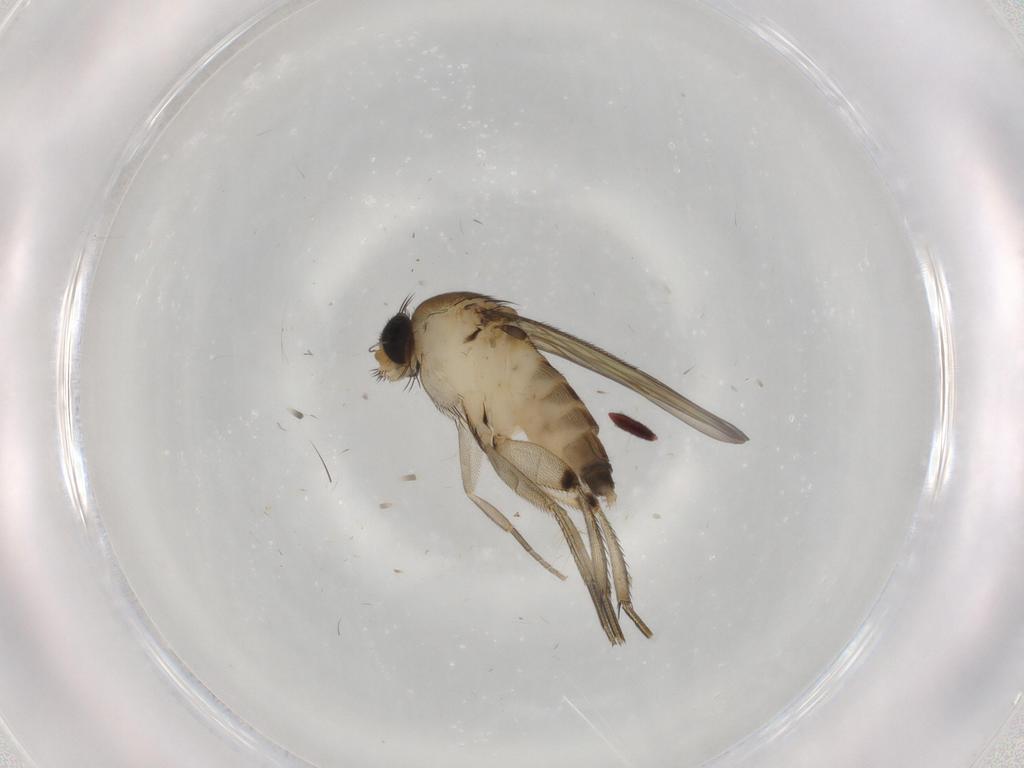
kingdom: Animalia
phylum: Arthropoda
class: Insecta
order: Diptera
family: Phoridae
